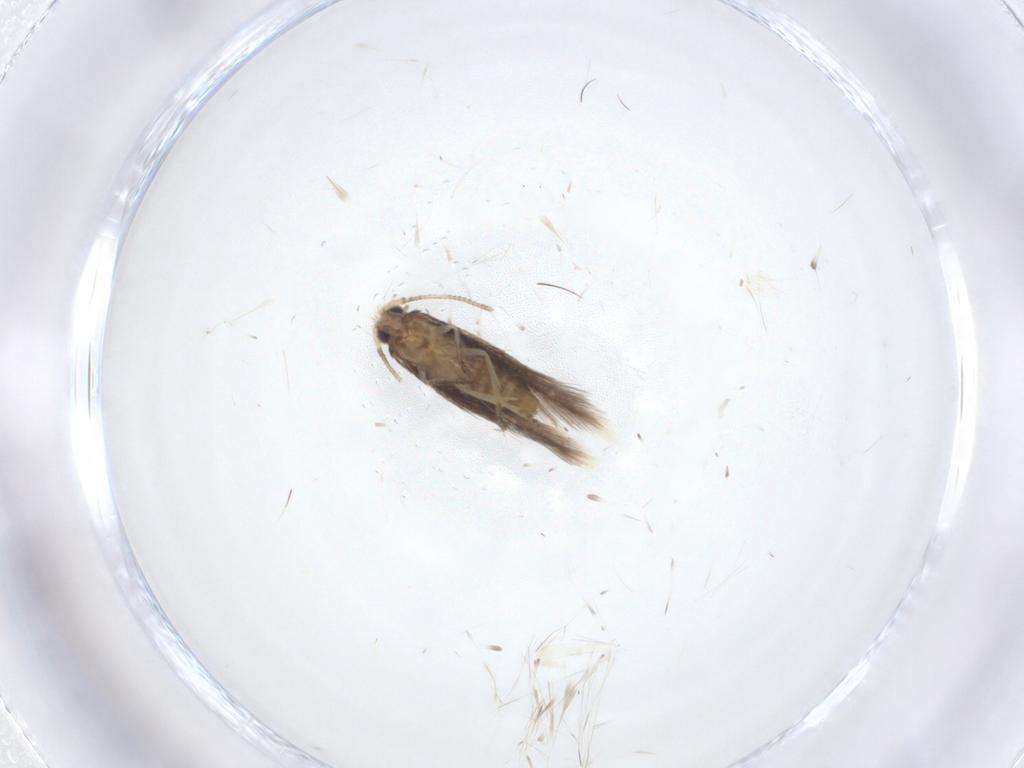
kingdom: Animalia
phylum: Arthropoda
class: Insecta
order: Lepidoptera
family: Nepticulidae
